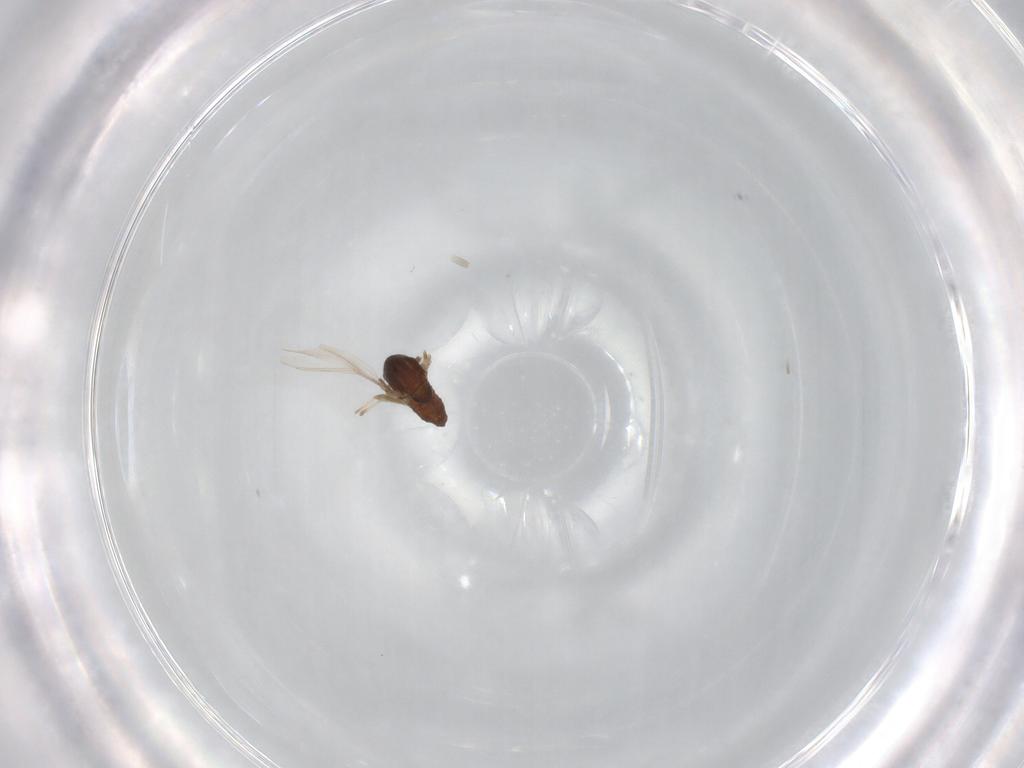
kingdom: Animalia
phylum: Arthropoda
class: Insecta
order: Diptera
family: Chironomidae
